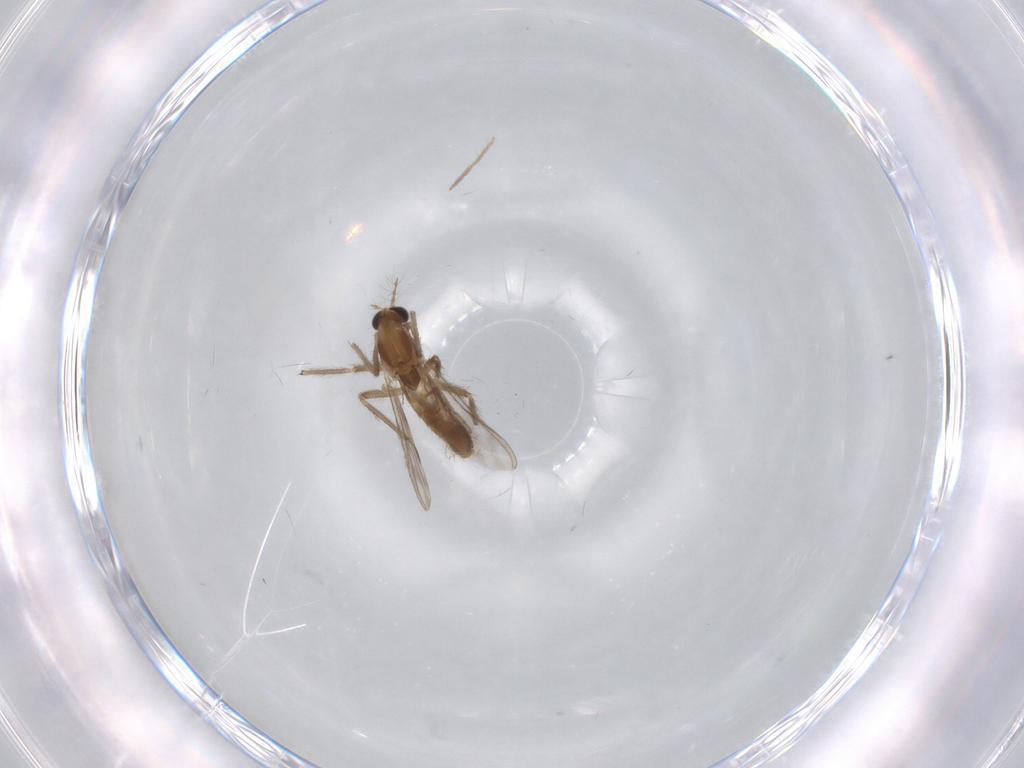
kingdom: Animalia
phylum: Arthropoda
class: Insecta
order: Diptera
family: Chironomidae
